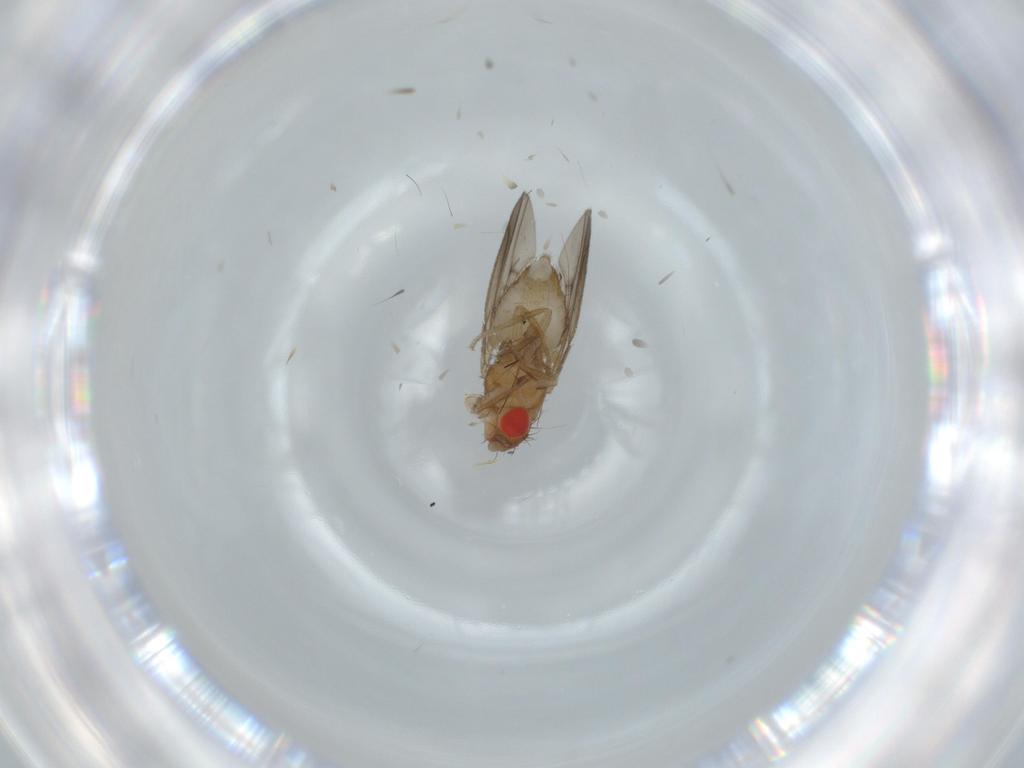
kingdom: Animalia
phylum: Arthropoda
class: Insecta
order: Diptera
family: Drosophilidae
